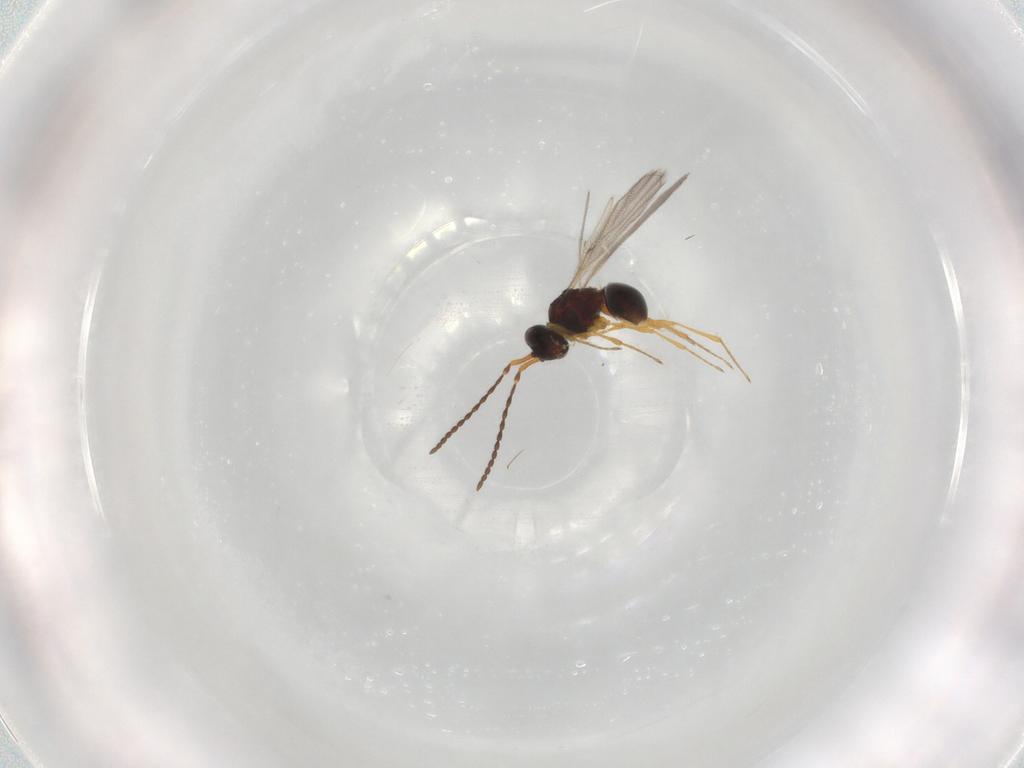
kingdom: Animalia
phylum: Arthropoda
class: Insecta
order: Hymenoptera
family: Diapriidae
